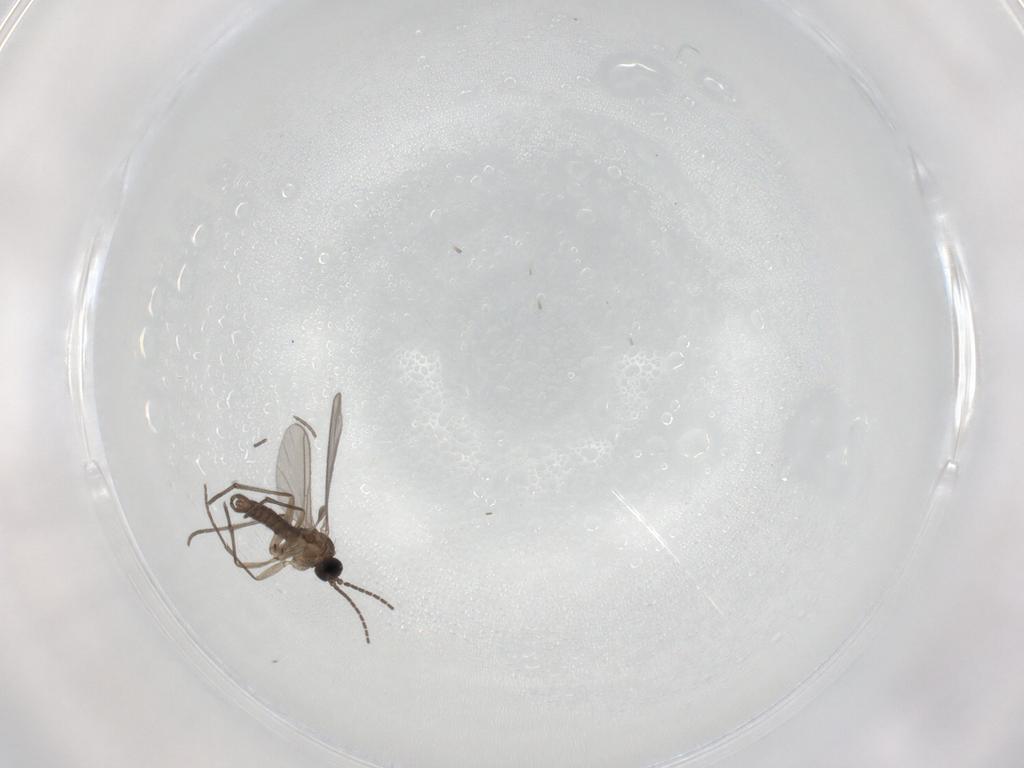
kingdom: Animalia
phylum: Arthropoda
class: Insecta
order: Diptera
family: Sciaridae
